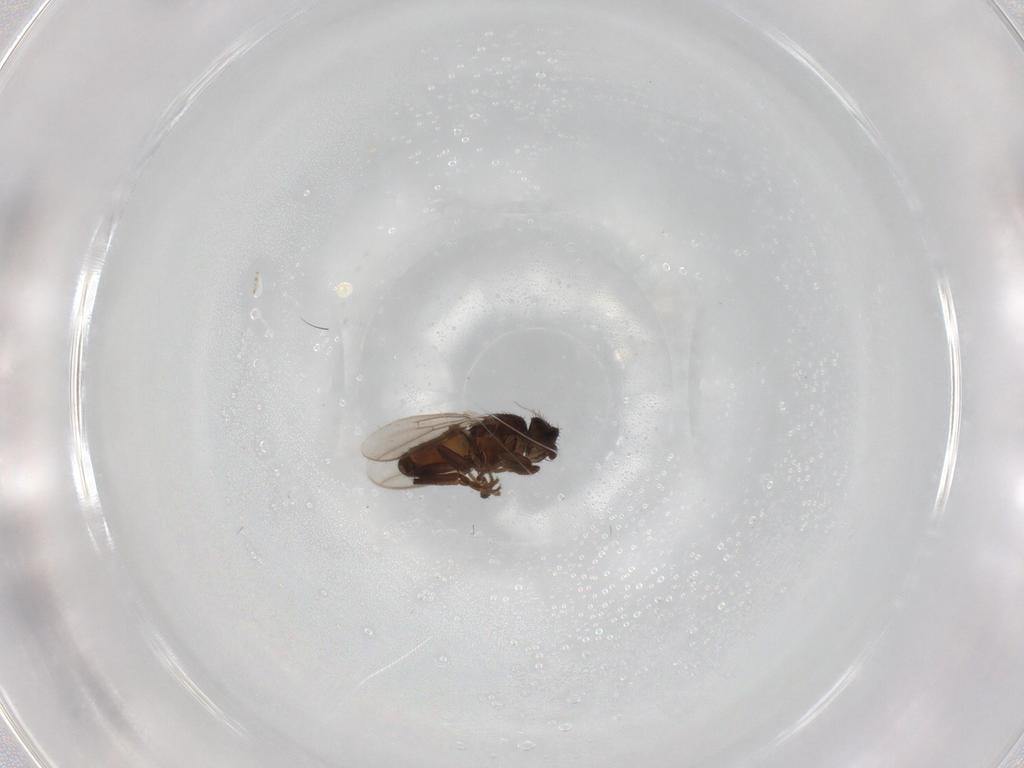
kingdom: Animalia
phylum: Arthropoda
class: Insecta
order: Diptera
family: Sphaeroceridae
